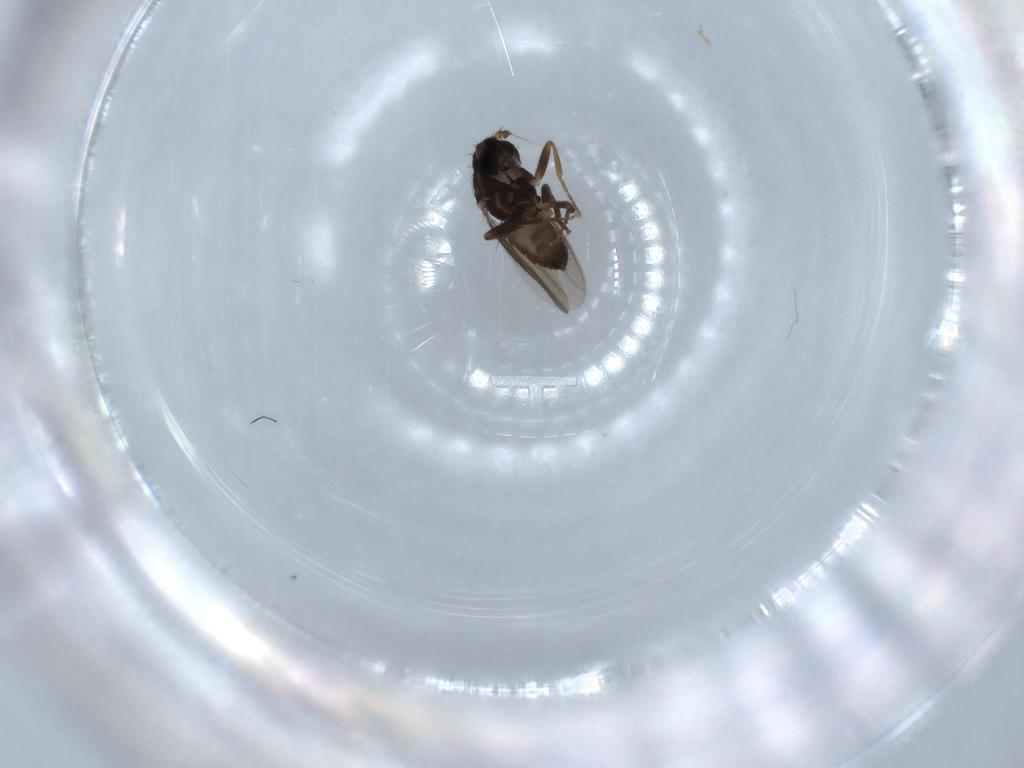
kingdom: Animalia
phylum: Arthropoda
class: Insecta
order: Diptera
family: Sphaeroceridae
